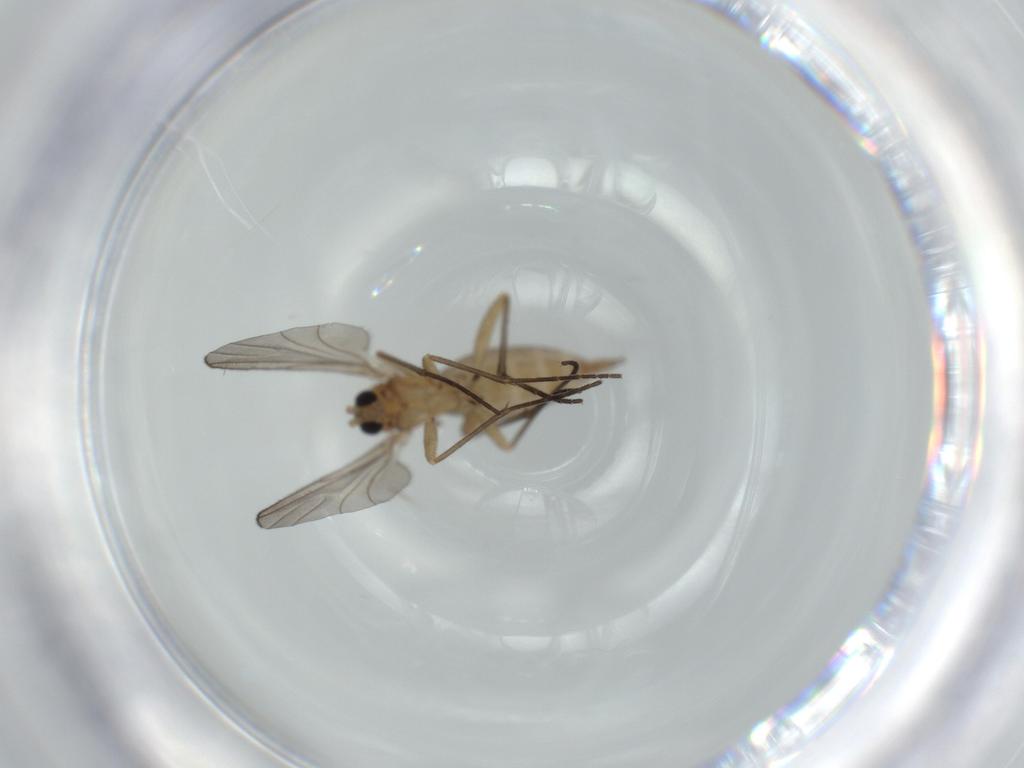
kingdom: Animalia
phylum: Arthropoda
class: Insecta
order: Diptera
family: Sciaridae
